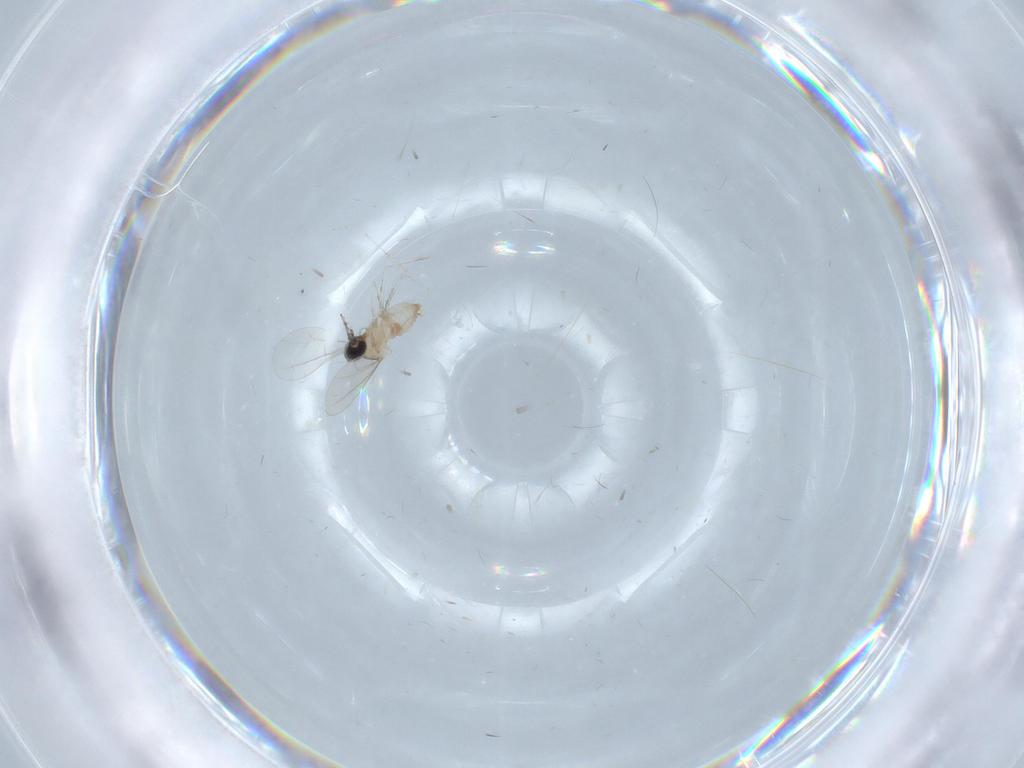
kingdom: Animalia
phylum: Arthropoda
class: Insecta
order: Diptera
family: Cecidomyiidae
